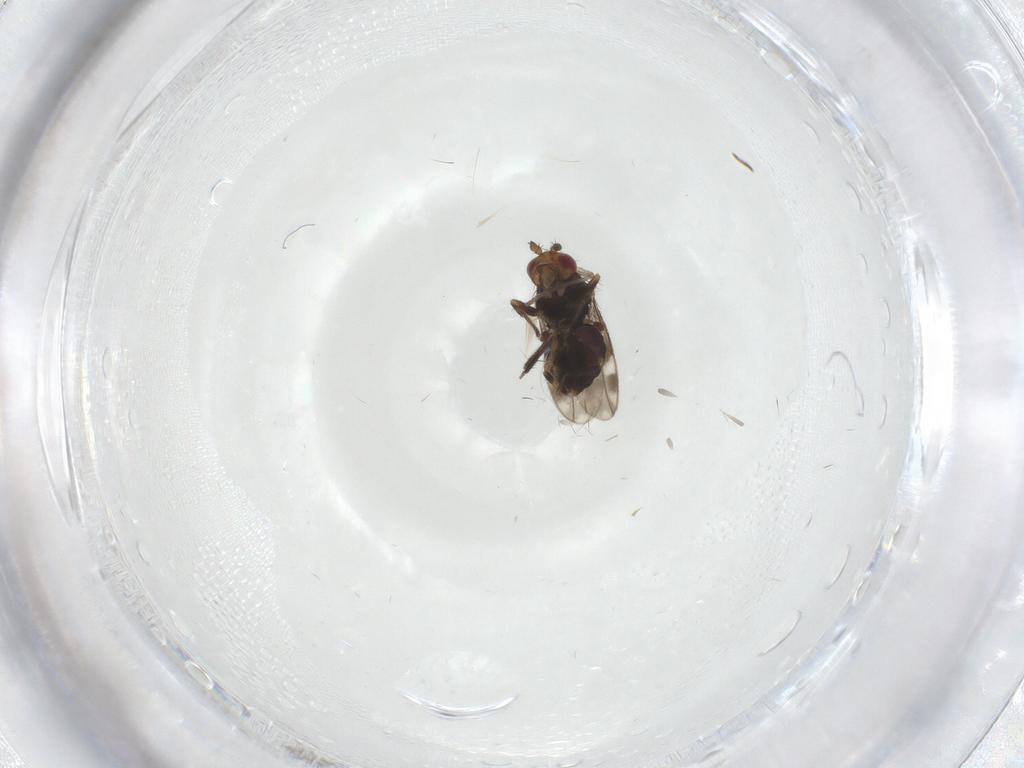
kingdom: Animalia
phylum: Arthropoda
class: Insecta
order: Diptera
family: Sphaeroceridae
